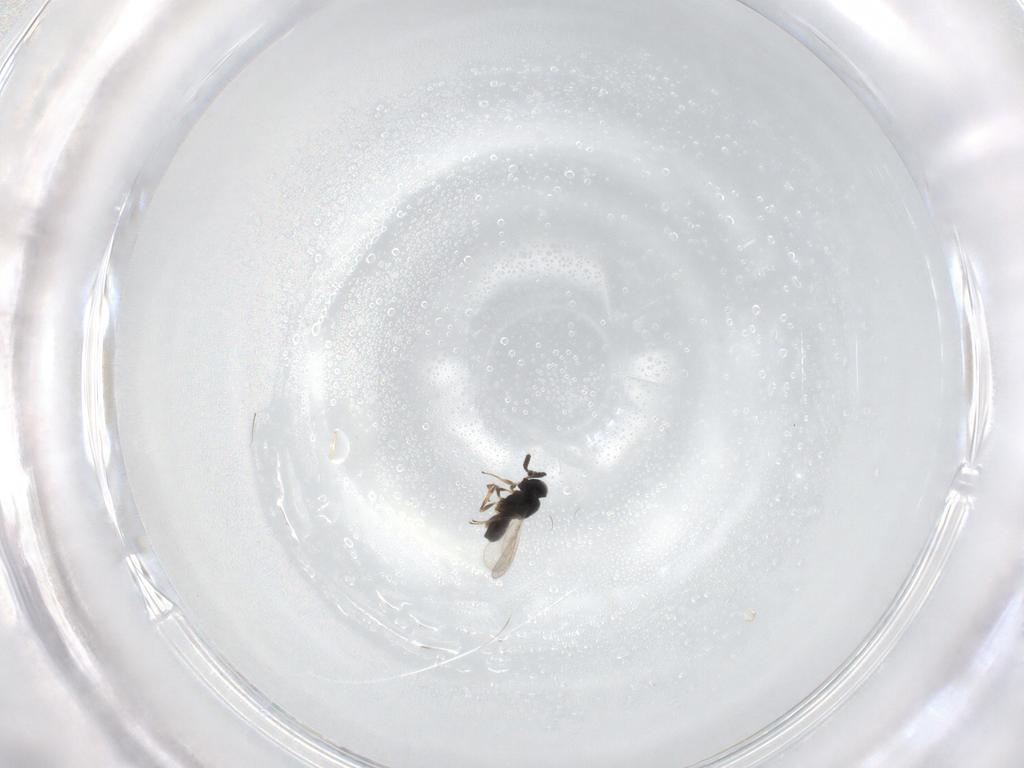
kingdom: Animalia
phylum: Arthropoda
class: Insecta
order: Hymenoptera
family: Scelionidae
